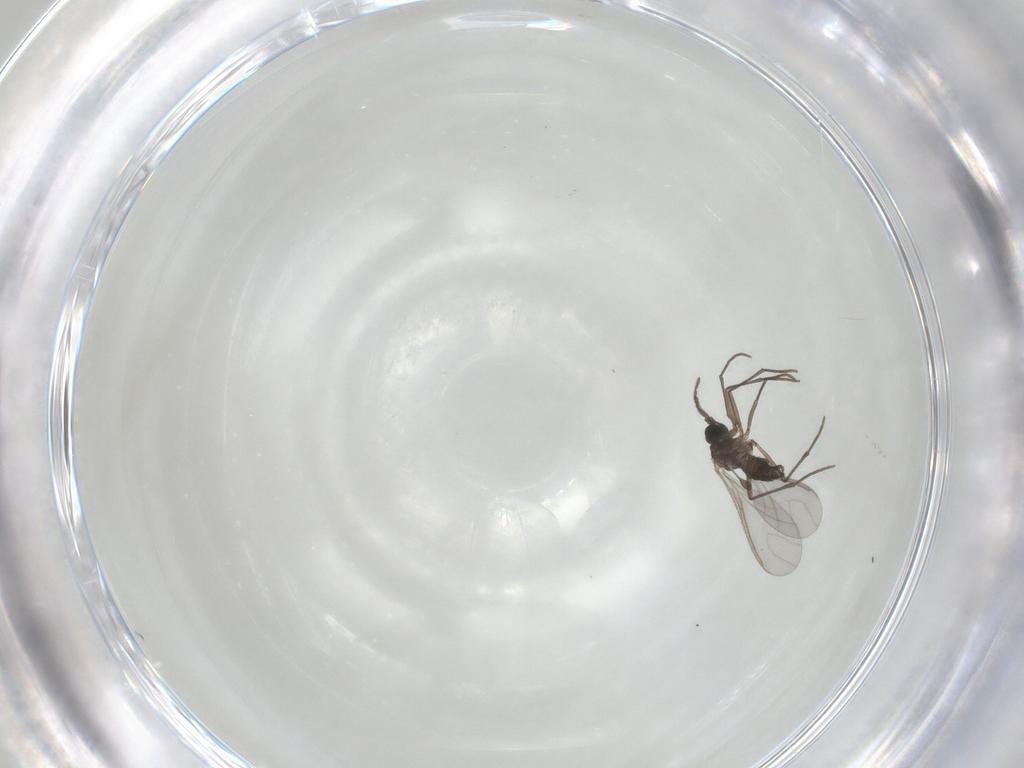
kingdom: Animalia
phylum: Arthropoda
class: Insecta
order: Diptera
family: Sciaridae
